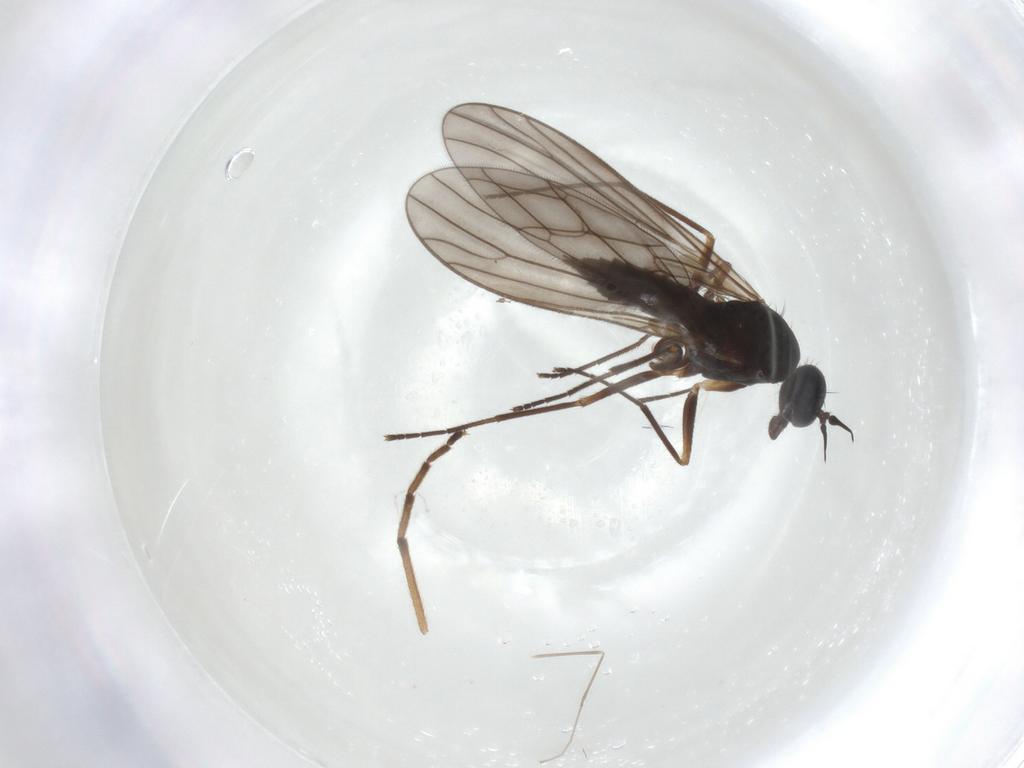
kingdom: Animalia
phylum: Arthropoda
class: Insecta
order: Diptera
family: Empididae
